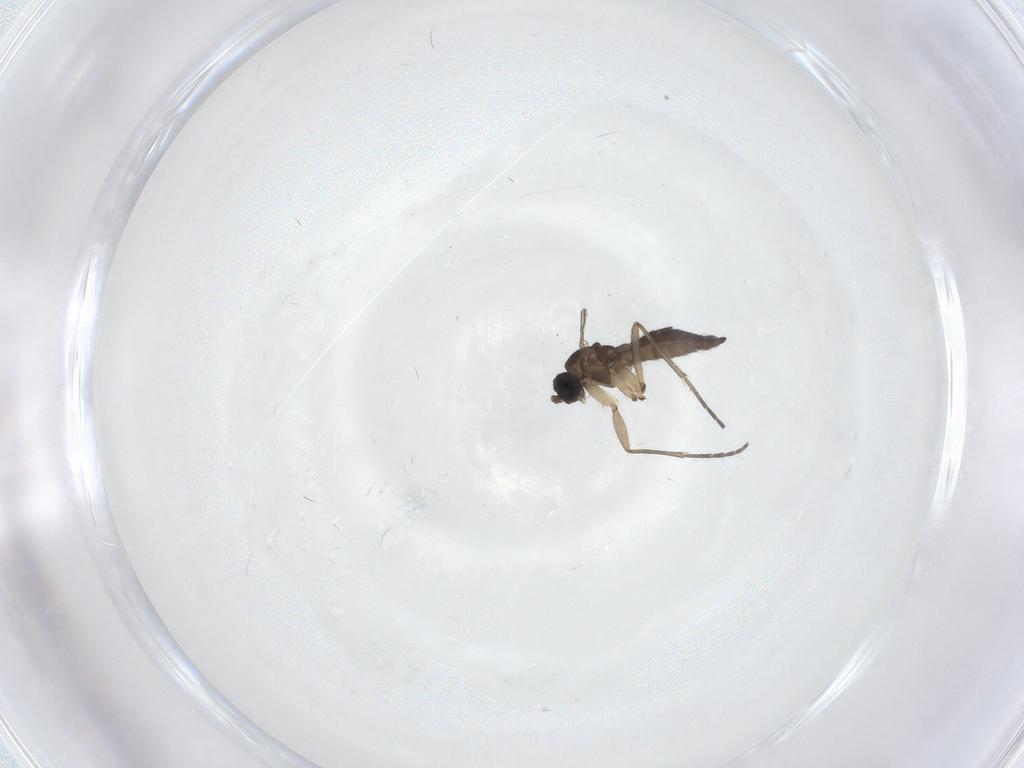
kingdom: Animalia
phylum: Arthropoda
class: Insecta
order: Diptera
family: Sciaridae
